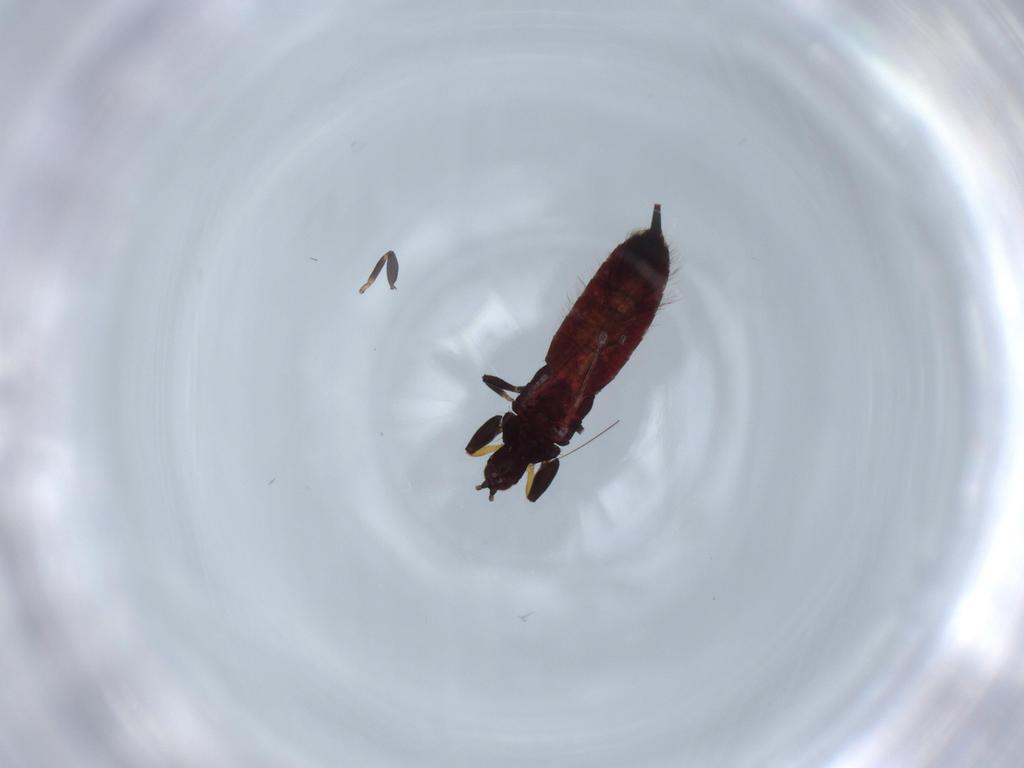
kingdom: Animalia
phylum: Arthropoda
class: Insecta
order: Thysanoptera
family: Phlaeothripidae
